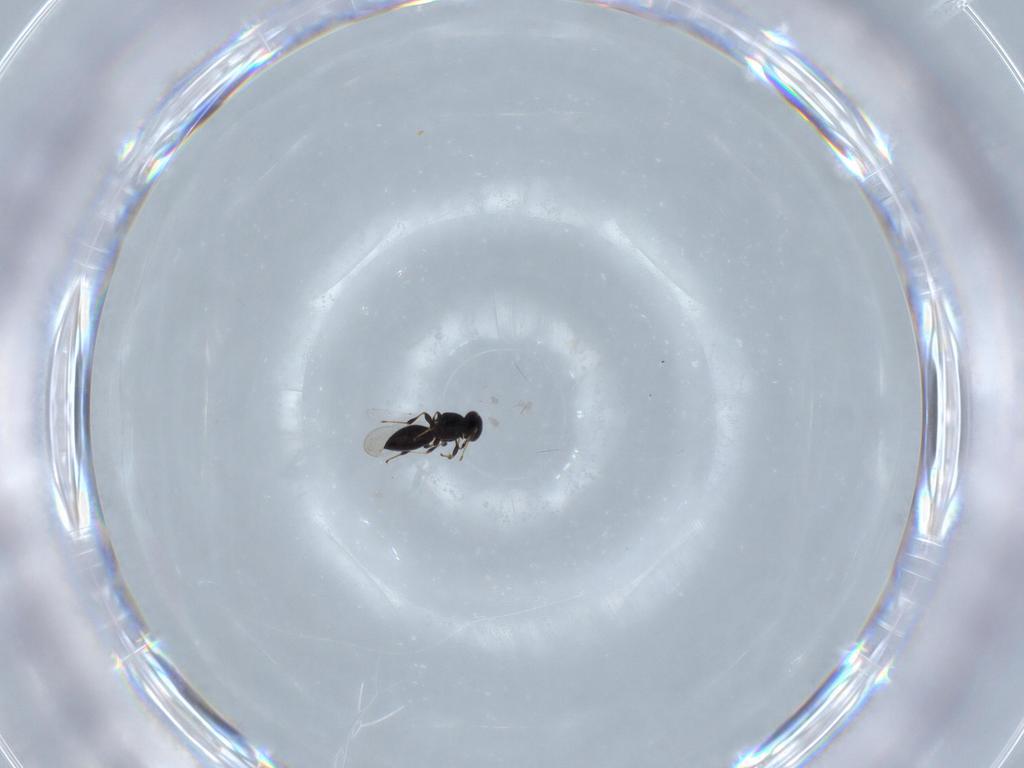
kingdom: Animalia
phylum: Arthropoda
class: Insecta
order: Hymenoptera
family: Platygastridae
